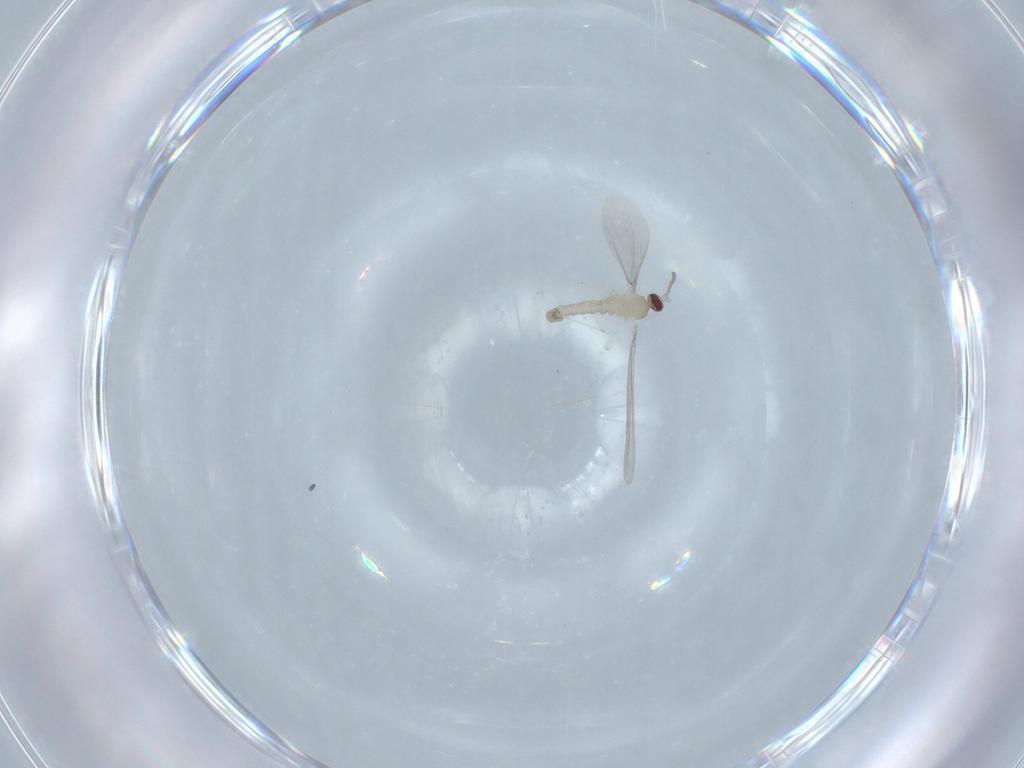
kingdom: Animalia
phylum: Arthropoda
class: Insecta
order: Diptera
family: Cecidomyiidae
